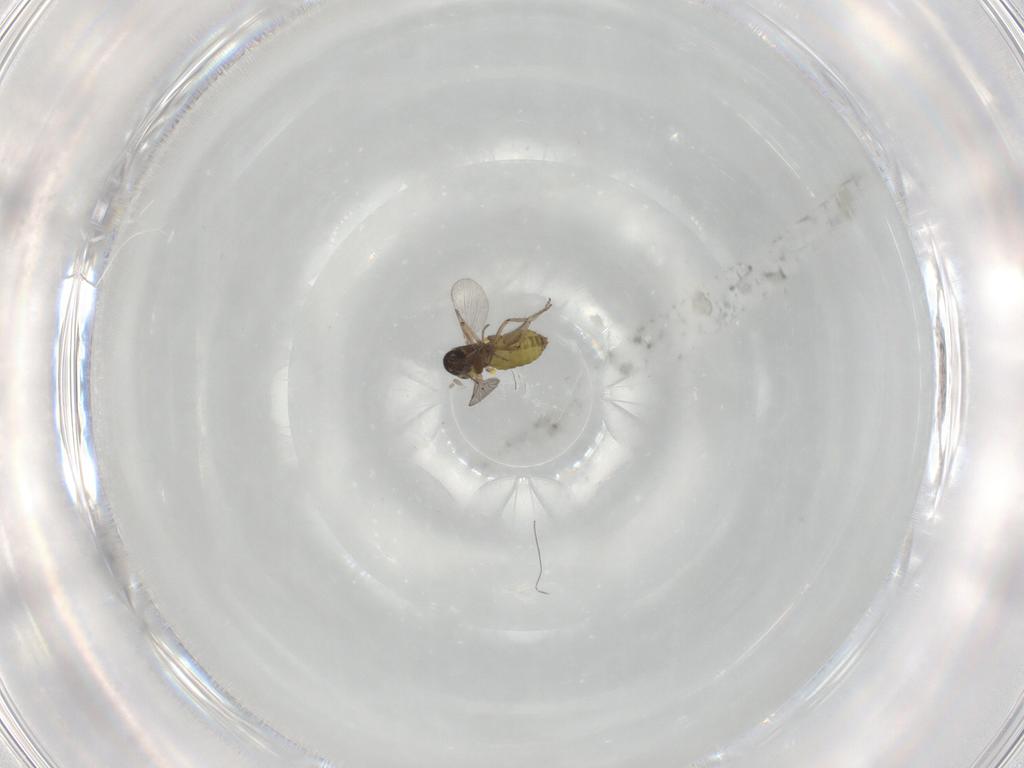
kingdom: Animalia
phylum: Arthropoda
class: Insecta
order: Diptera
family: Ceratopogonidae
